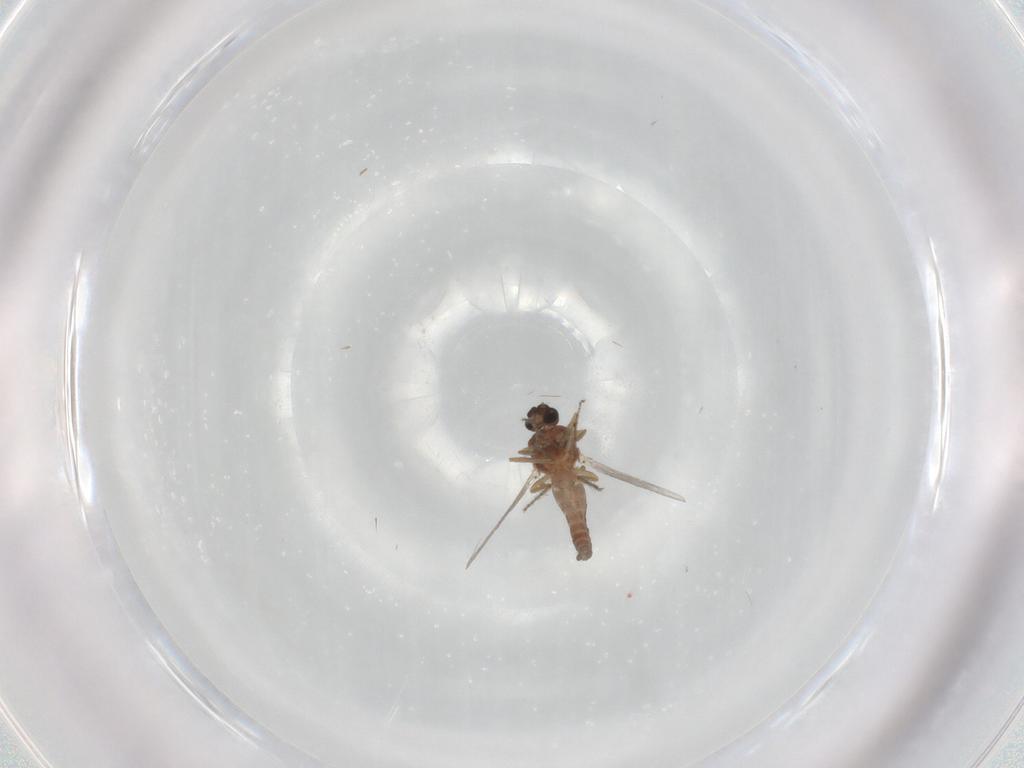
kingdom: Animalia
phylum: Arthropoda
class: Insecta
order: Diptera
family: Ceratopogonidae
